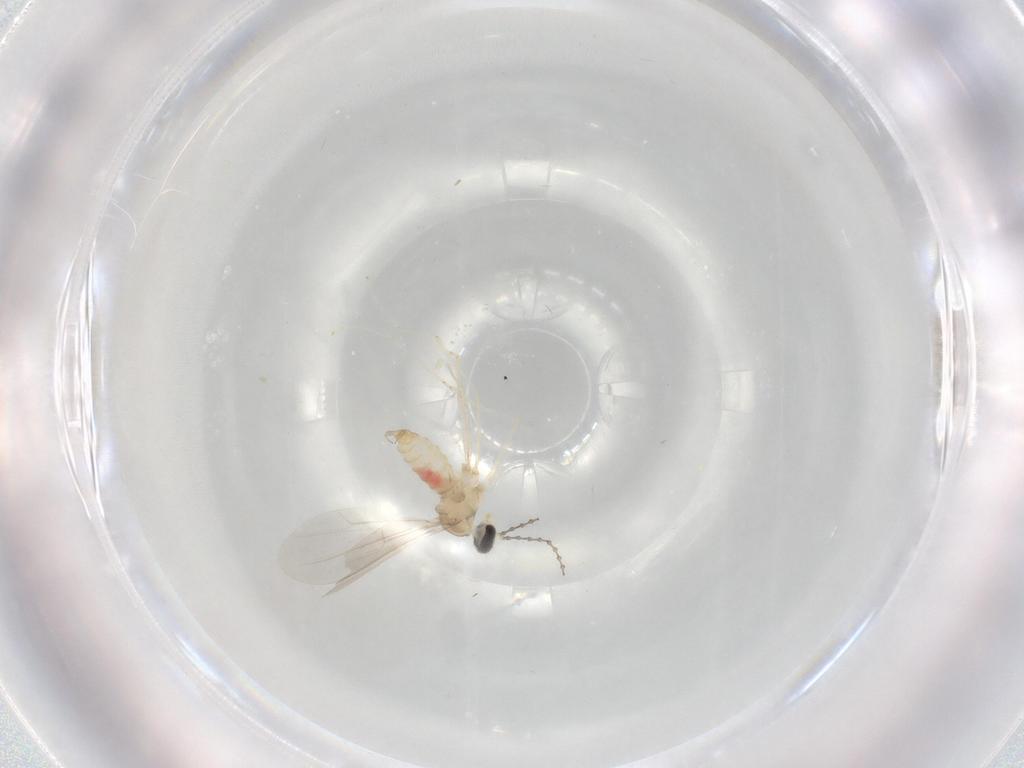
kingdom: Animalia
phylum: Arthropoda
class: Insecta
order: Diptera
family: Cecidomyiidae
